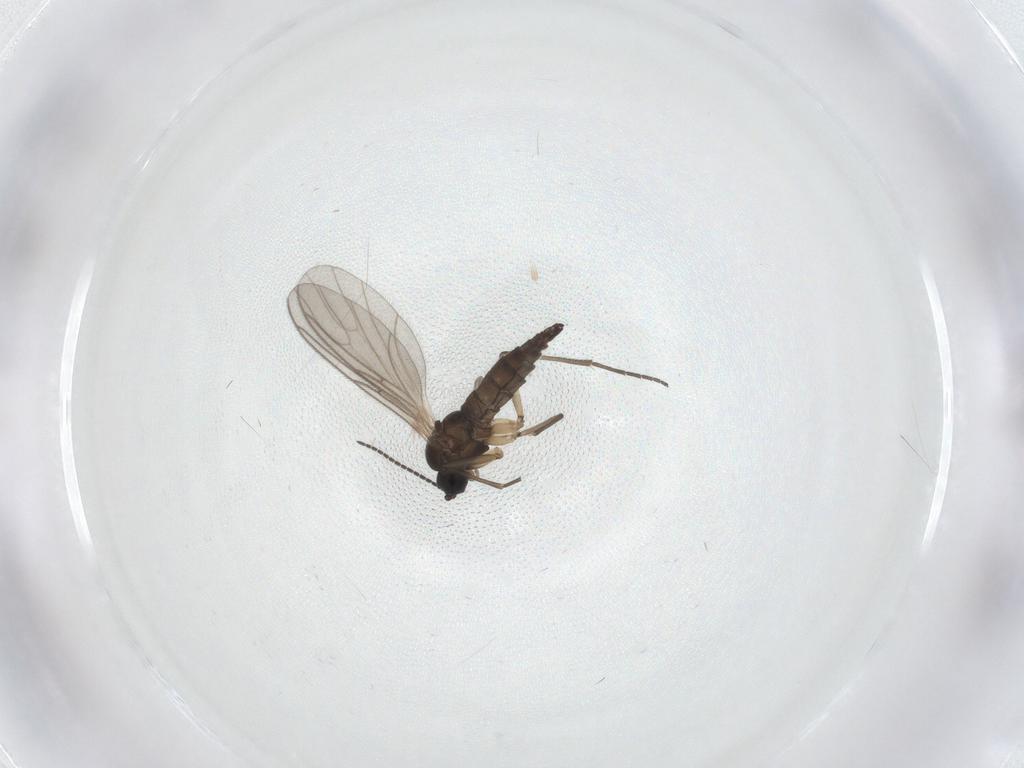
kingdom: Animalia
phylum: Arthropoda
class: Insecta
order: Diptera
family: Sciaridae
